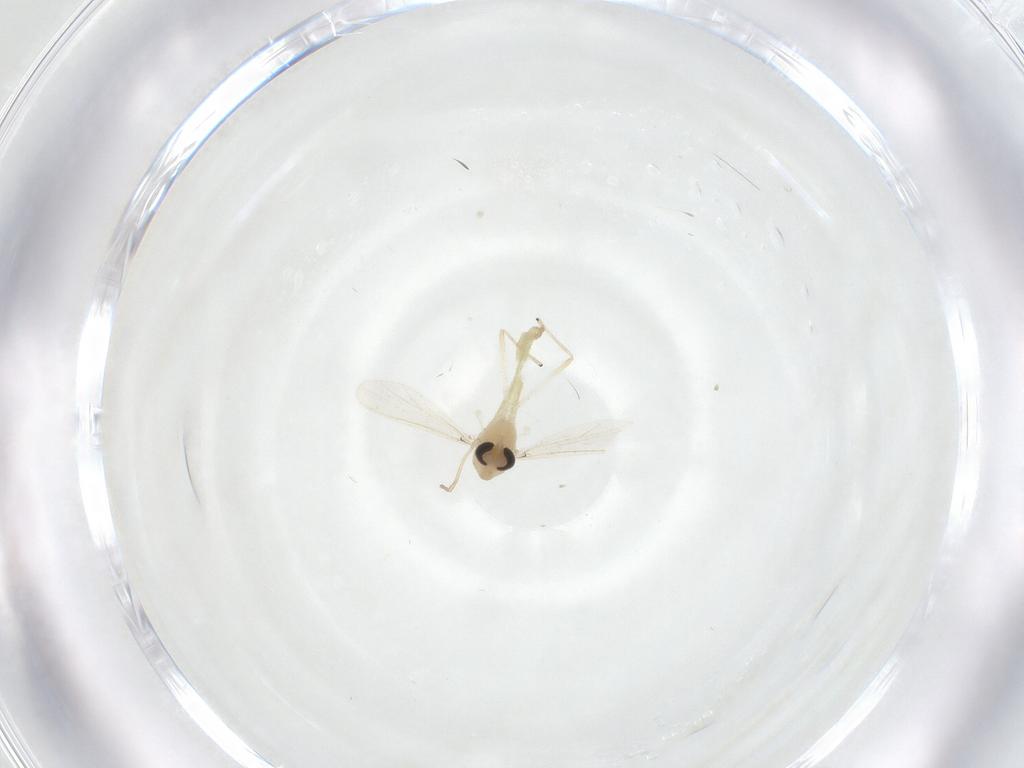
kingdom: Animalia
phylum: Arthropoda
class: Insecta
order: Diptera
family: Chironomidae
